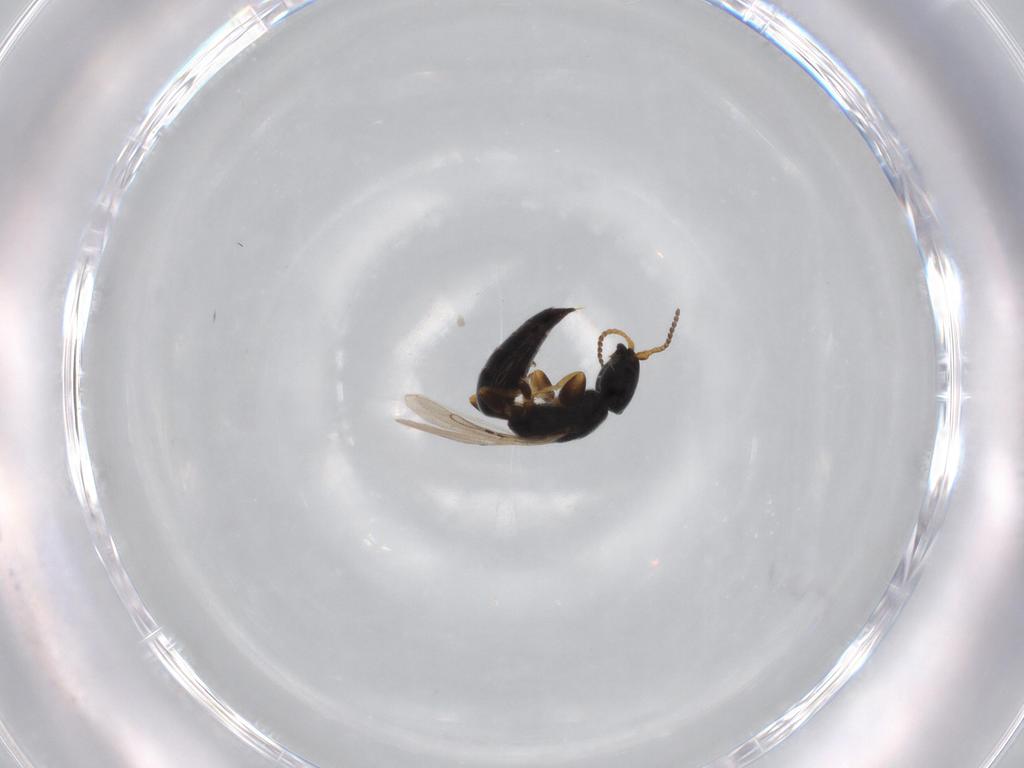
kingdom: Animalia
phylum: Arthropoda
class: Insecta
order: Hymenoptera
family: Bethylidae
